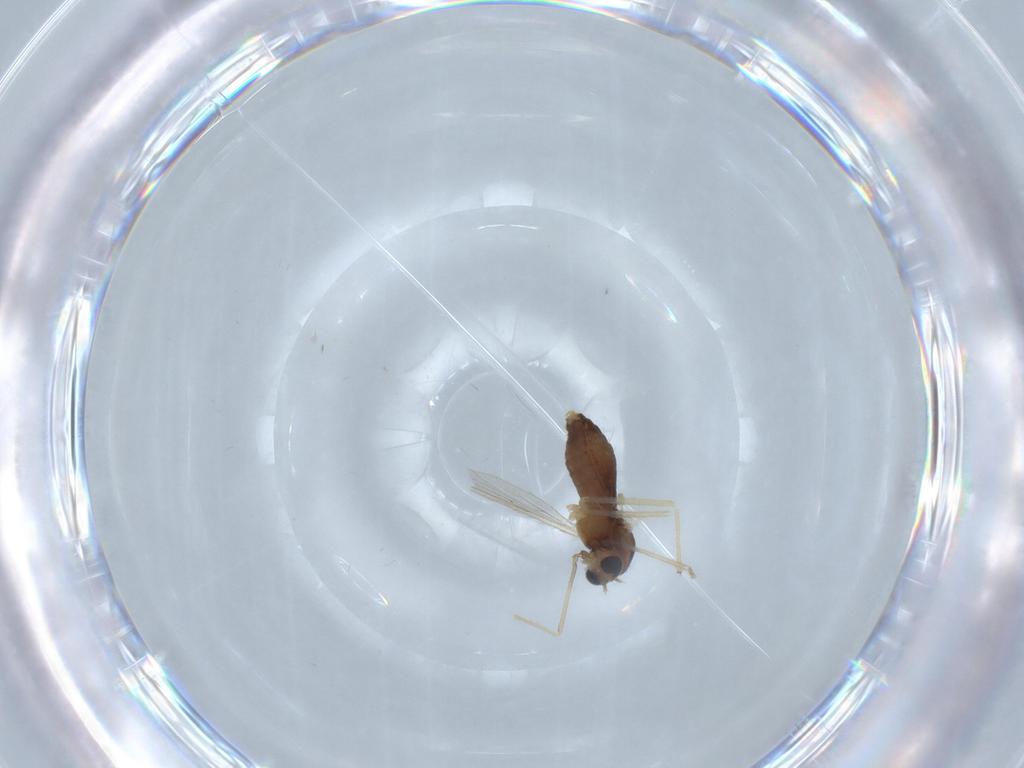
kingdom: Animalia
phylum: Arthropoda
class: Insecta
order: Diptera
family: Chironomidae
